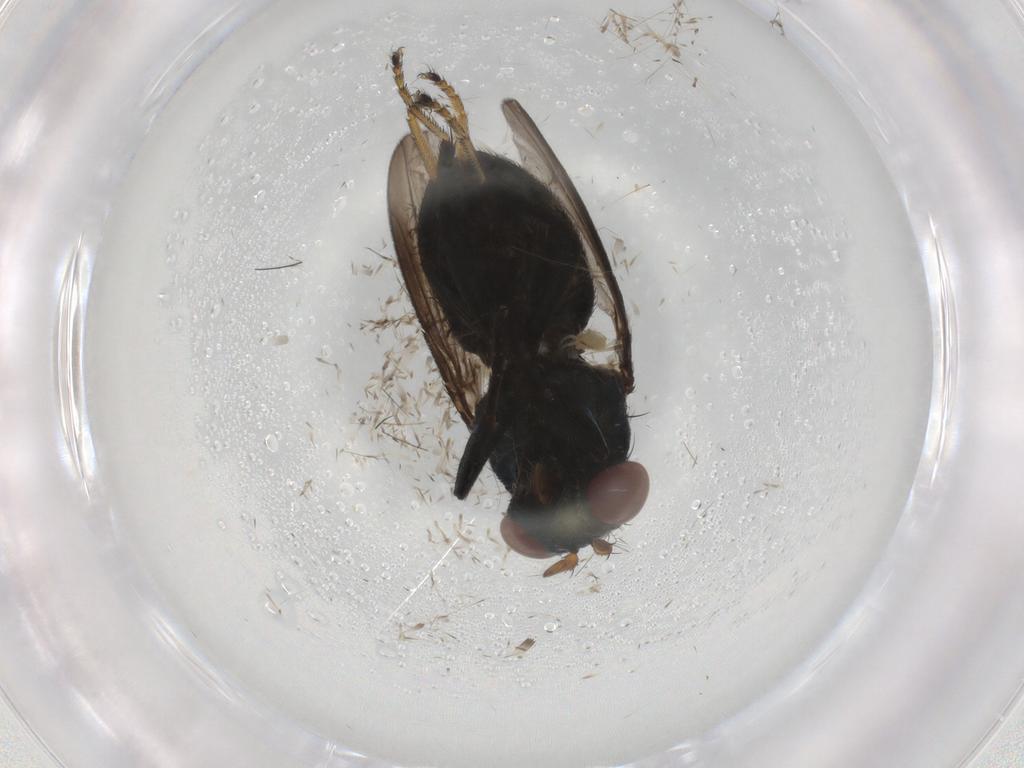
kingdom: Animalia
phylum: Arthropoda
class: Insecta
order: Diptera
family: Ephydridae
